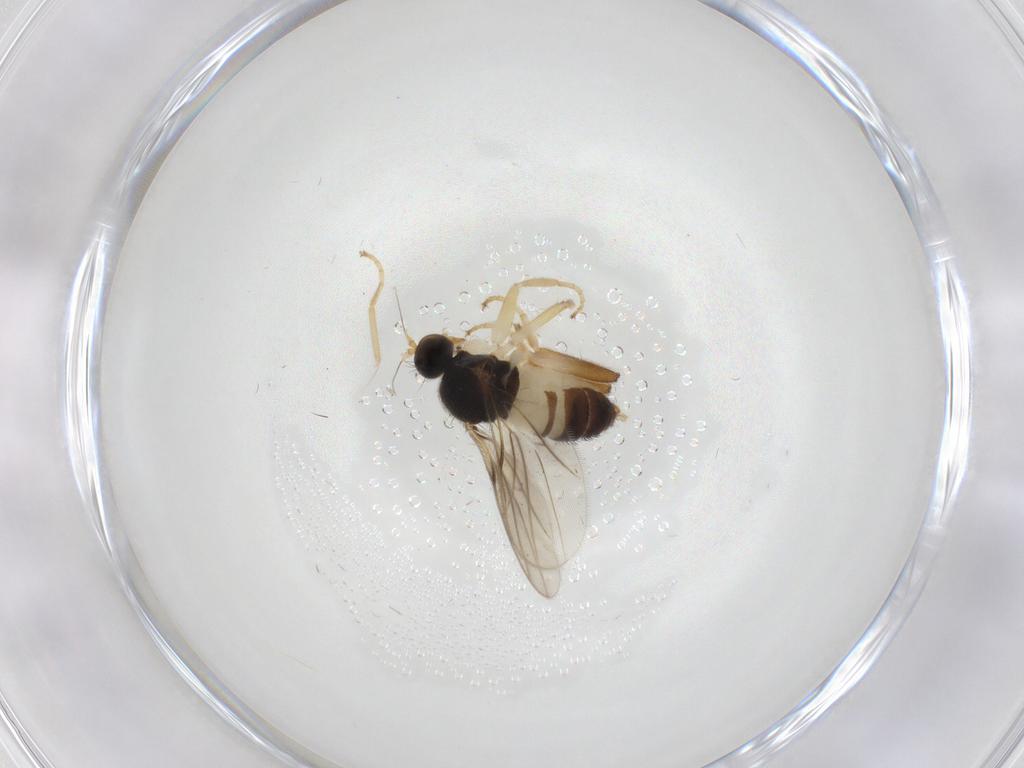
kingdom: Animalia
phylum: Arthropoda
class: Insecta
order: Diptera
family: Hybotidae
